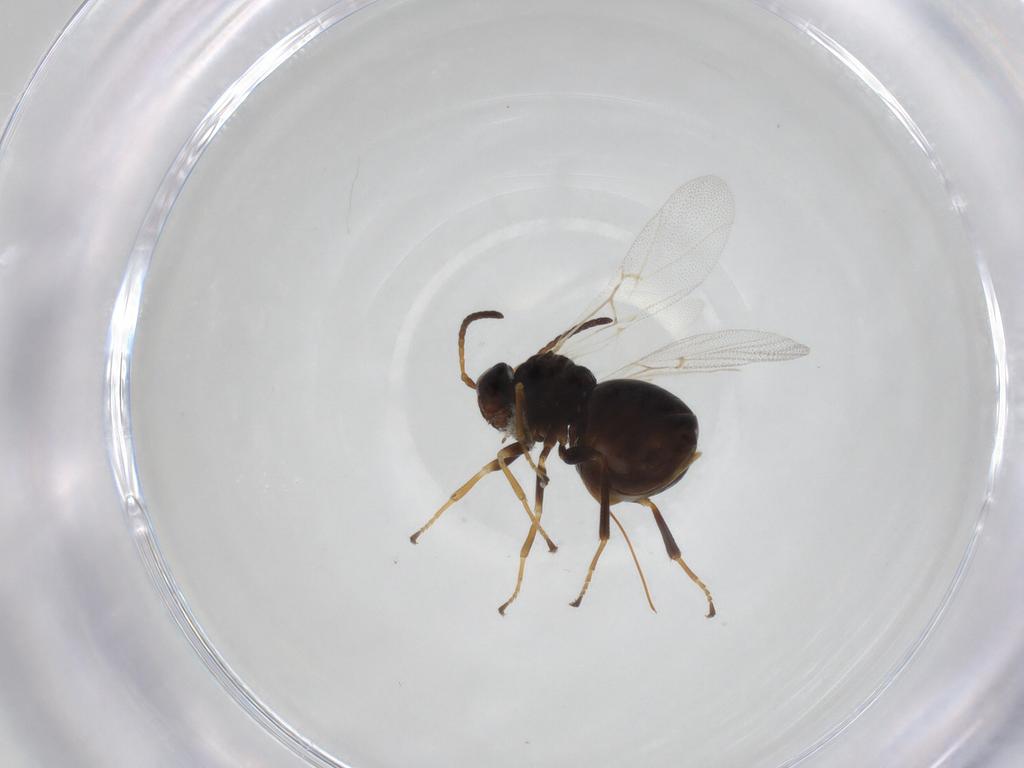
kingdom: Animalia
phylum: Arthropoda
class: Insecta
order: Hymenoptera
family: Cynipidae
